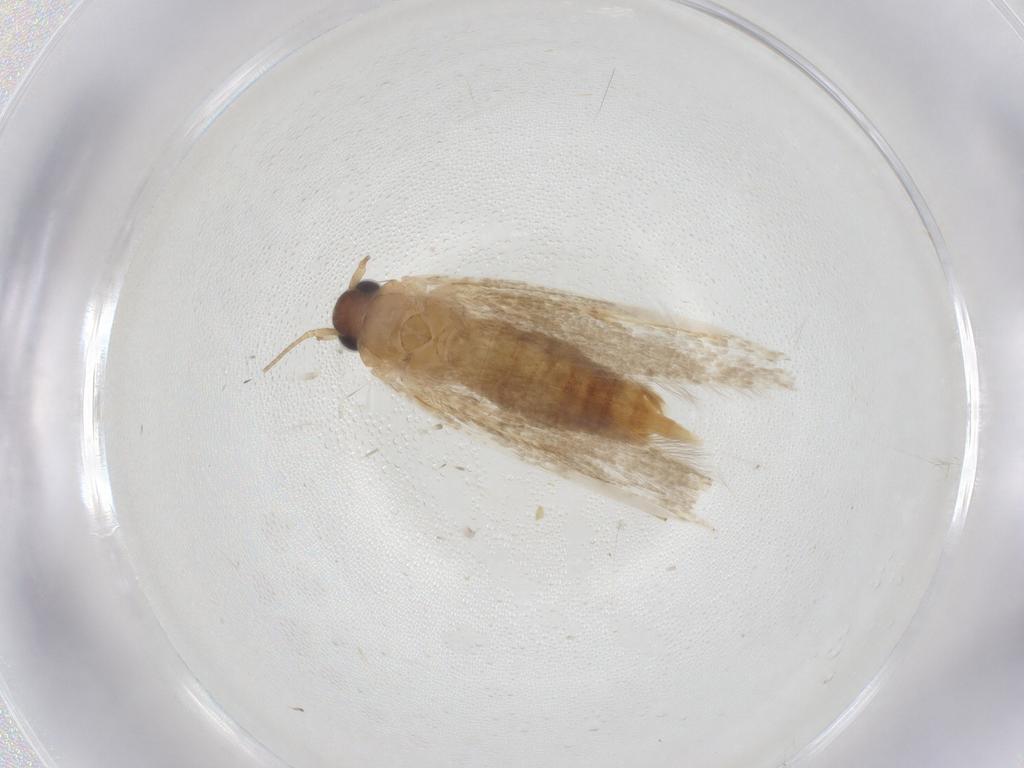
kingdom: Animalia
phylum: Arthropoda
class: Insecta
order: Lepidoptera
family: Blastobasidae
